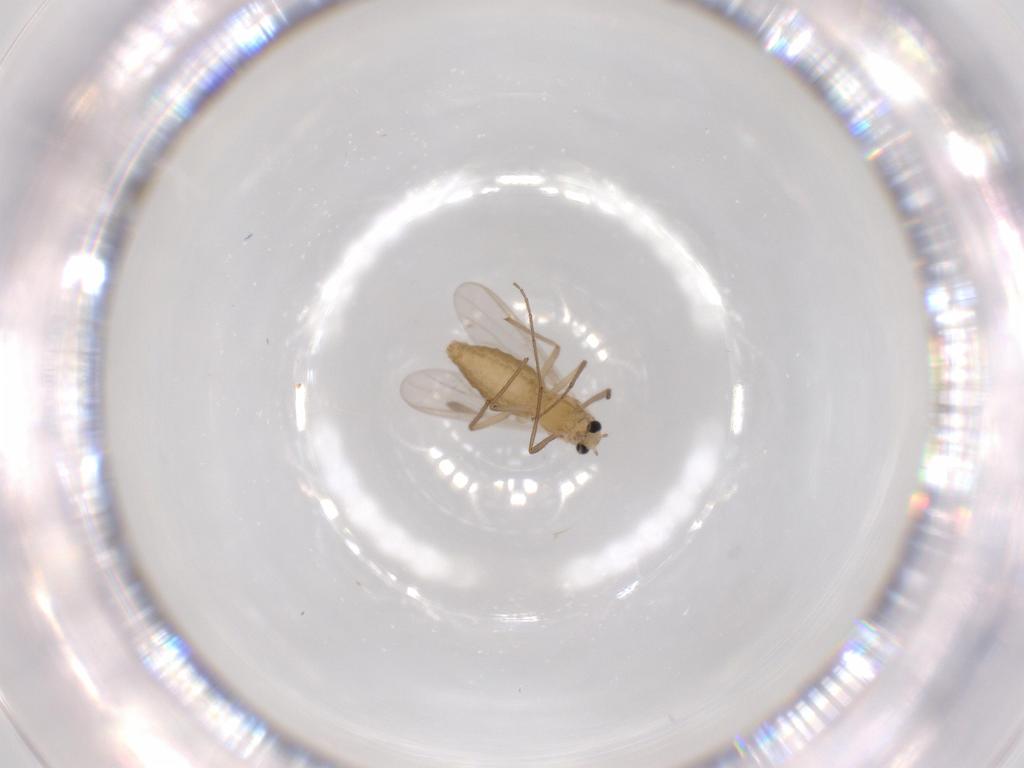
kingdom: Animalia
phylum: Arthropoda
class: Insecta
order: Diptera
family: Chironomidae
